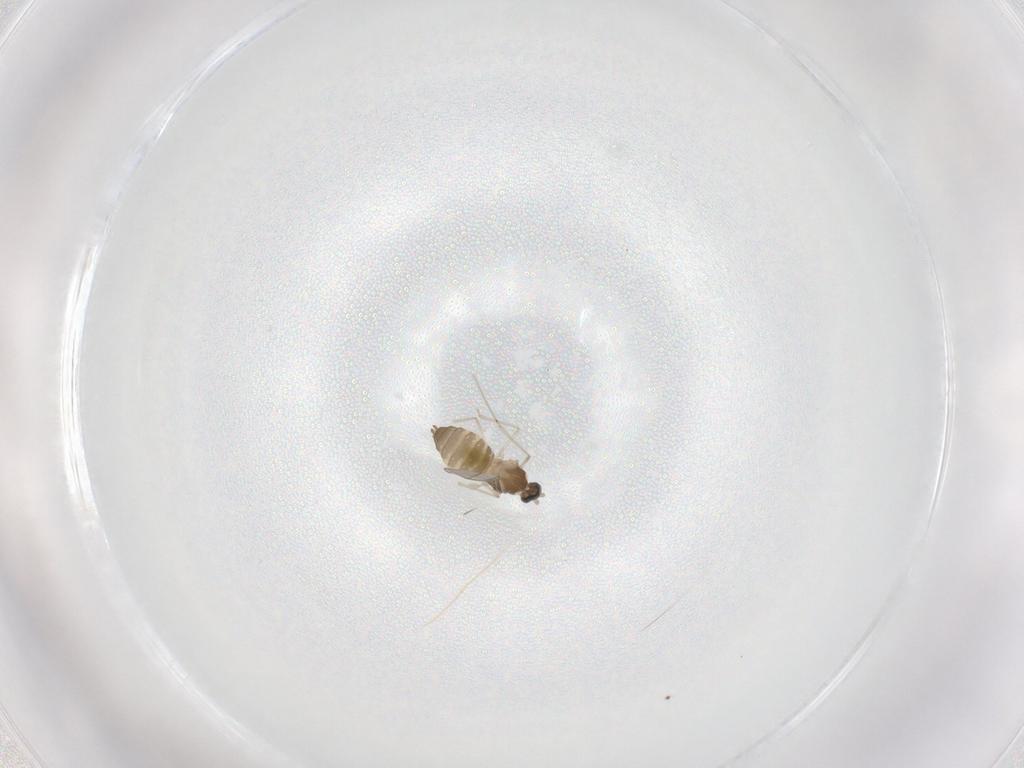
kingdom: Animalia
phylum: Arthropoda
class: Insecta
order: Diptera
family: Cecidomyiidae
